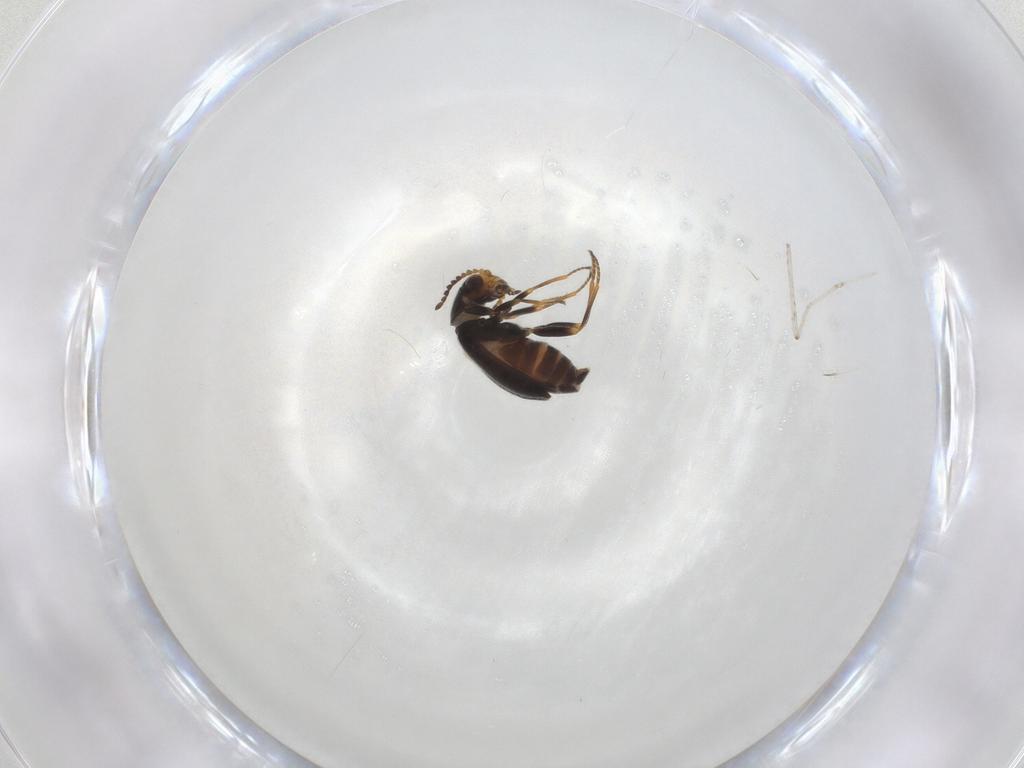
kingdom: Animalia
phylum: Arthropoda
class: Insecta
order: Coleoptera
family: Melyridae
